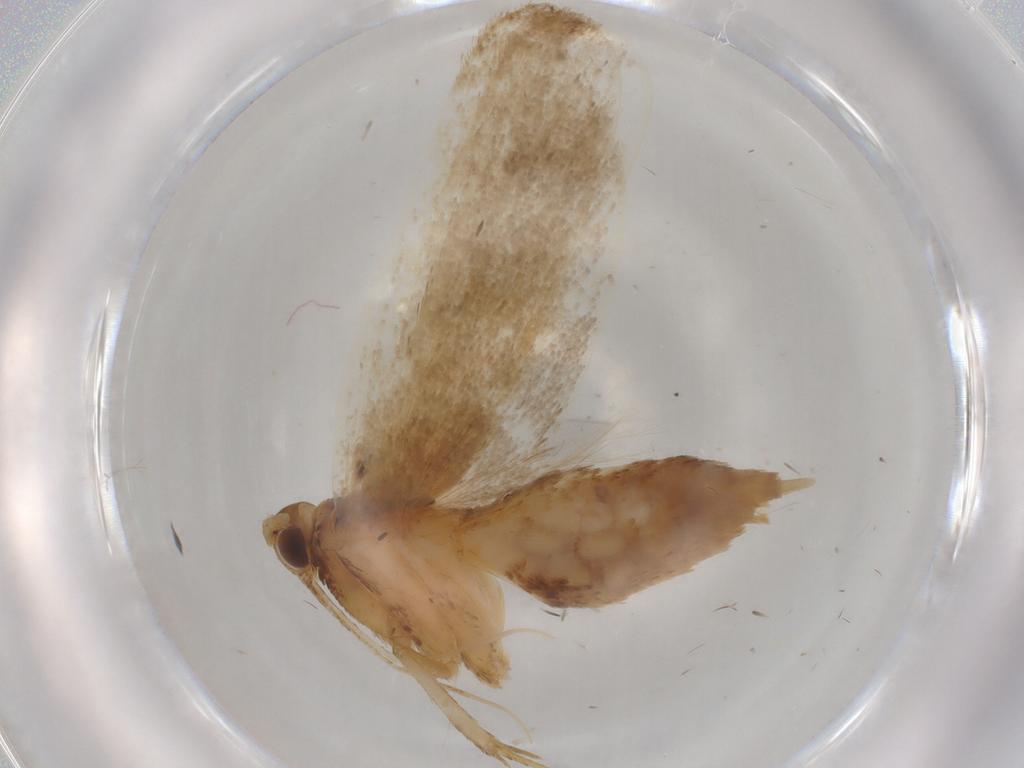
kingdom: Animalia
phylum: Arthropoda
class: Insecta
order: Lepidoptera
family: Lecithoceridae
